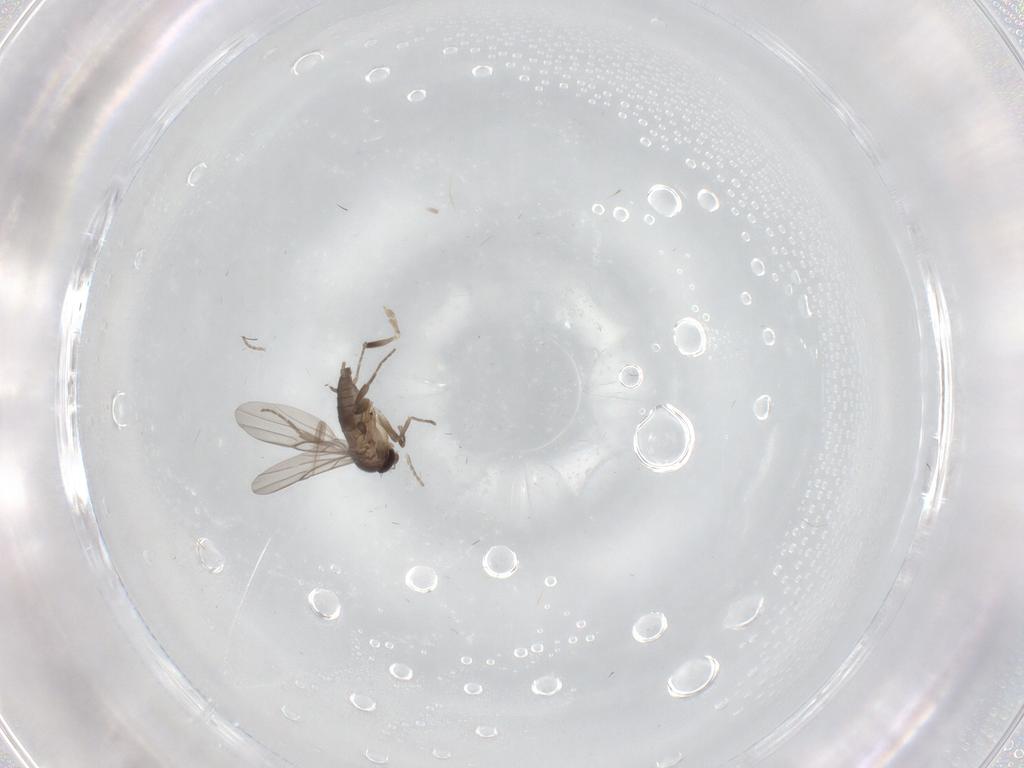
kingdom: Animalia
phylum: Arthropoda
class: Insecta
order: Diptera
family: Phoridae
